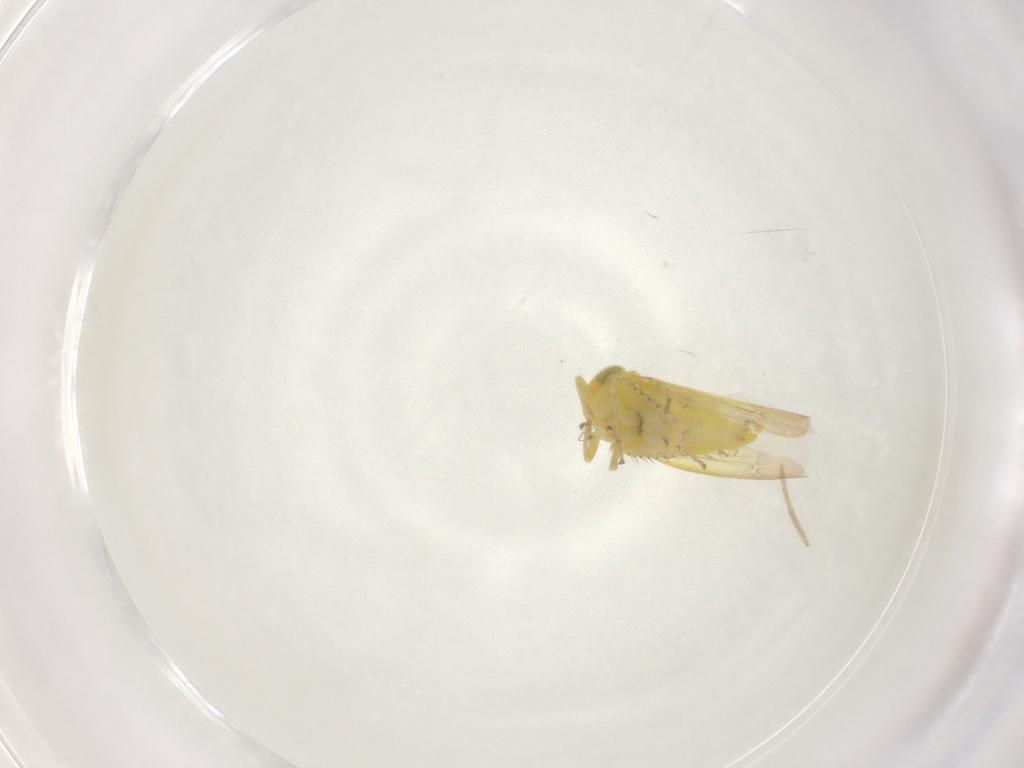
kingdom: Animalia
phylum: Arthropoda
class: Insecta
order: Hemiptera
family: Cicadellidae
